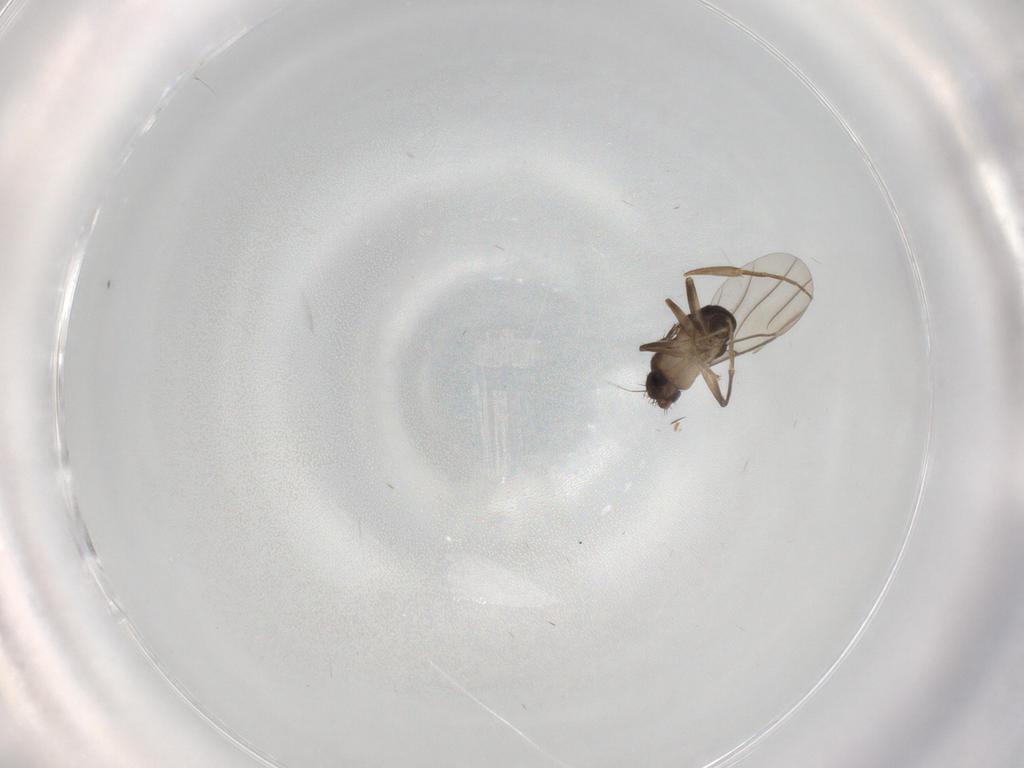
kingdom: Animalia
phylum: Arthropoda
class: Insecta
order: Diptera
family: Phoridae
